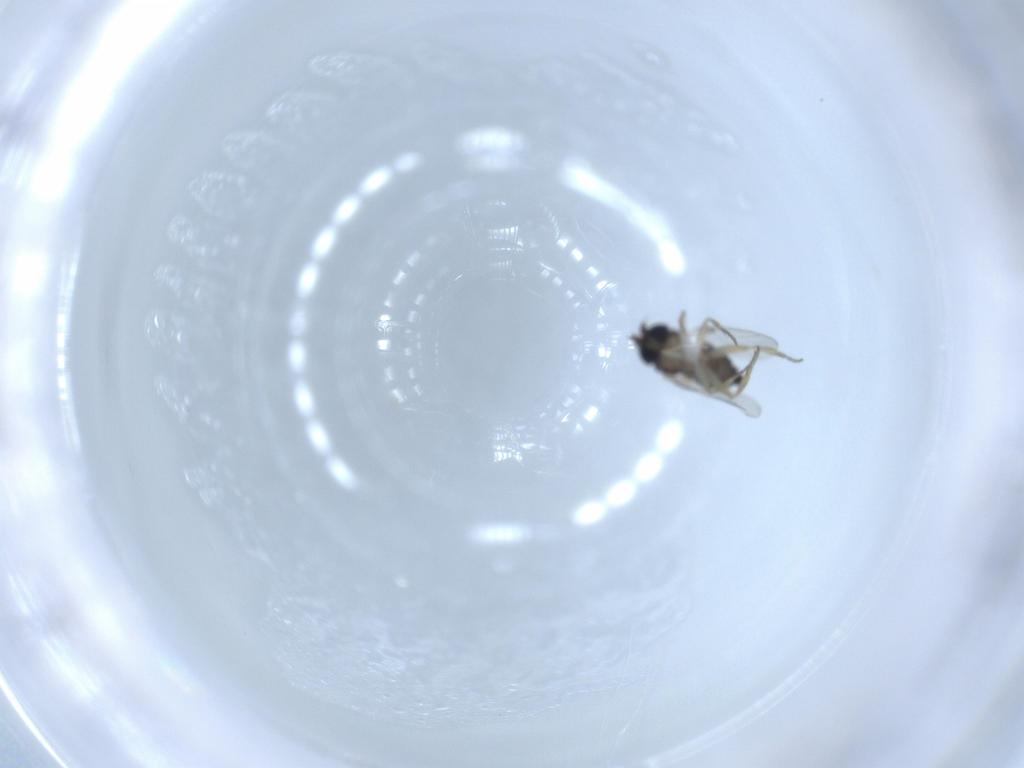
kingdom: Animalia
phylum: Arthropoda
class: Insecta
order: Diptera
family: Phoridae
